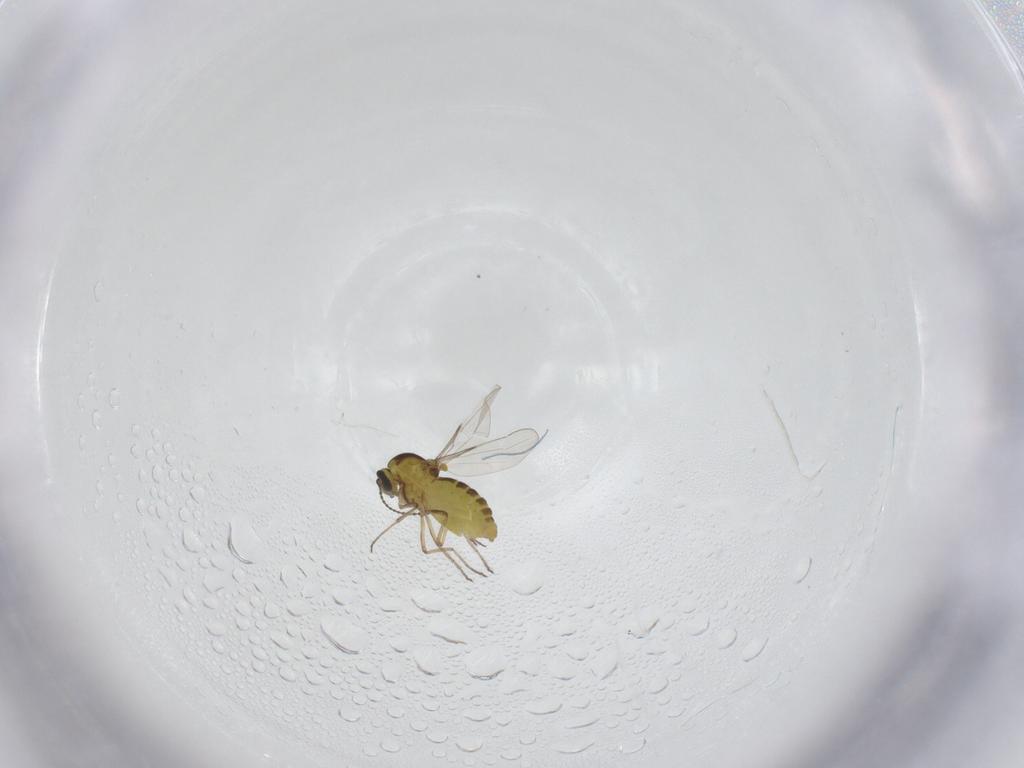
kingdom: Animalia
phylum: Arthropoda
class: Insecta
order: Diptera
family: Ceratopogonidae
